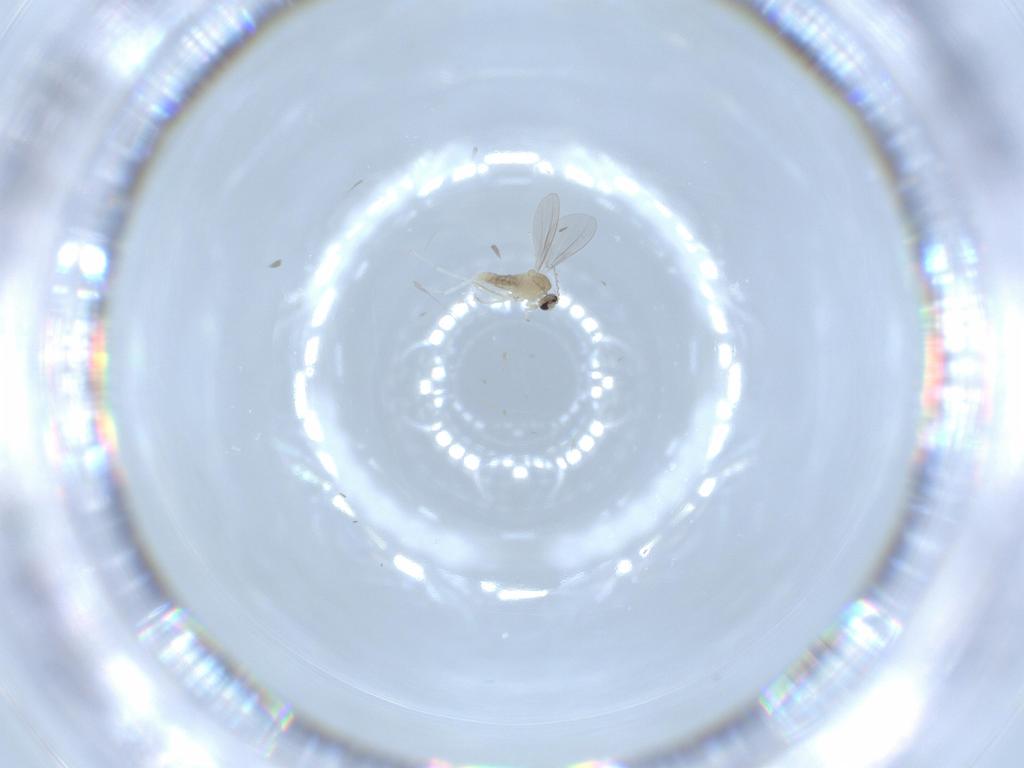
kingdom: Animalia
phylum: Arthropoda
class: Insecta
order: Diptera
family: Cecidomyiidae
